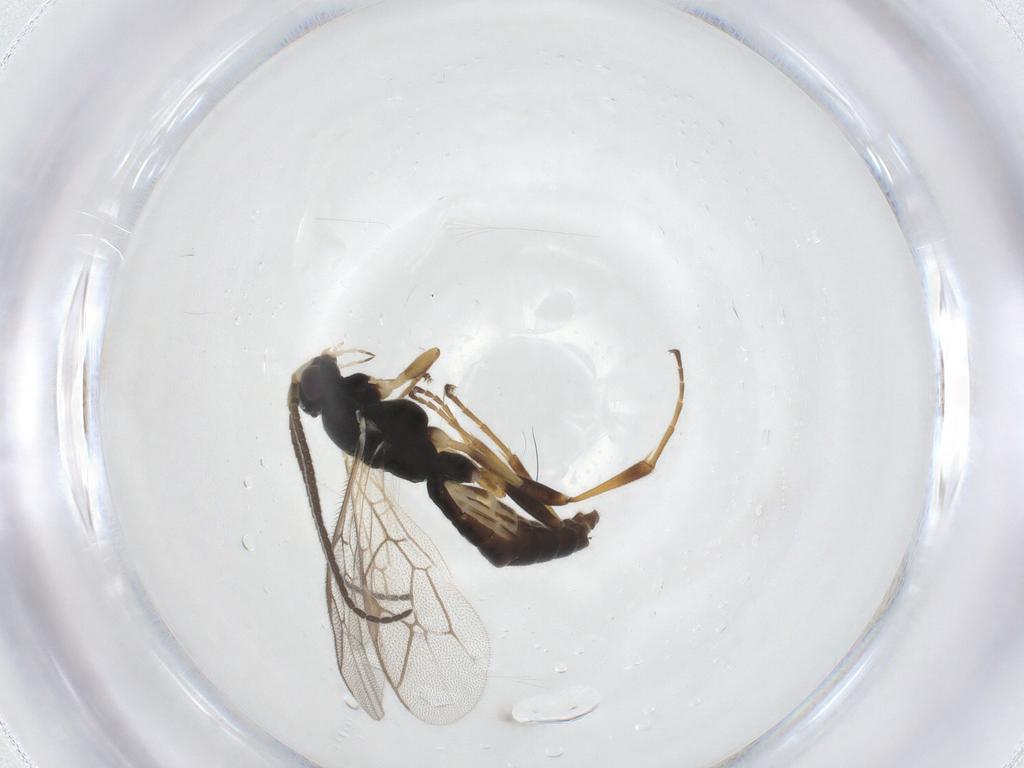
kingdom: Animalia
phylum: Arthropoda
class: Insecta
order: Hymenoptera
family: Ichneumonidae
